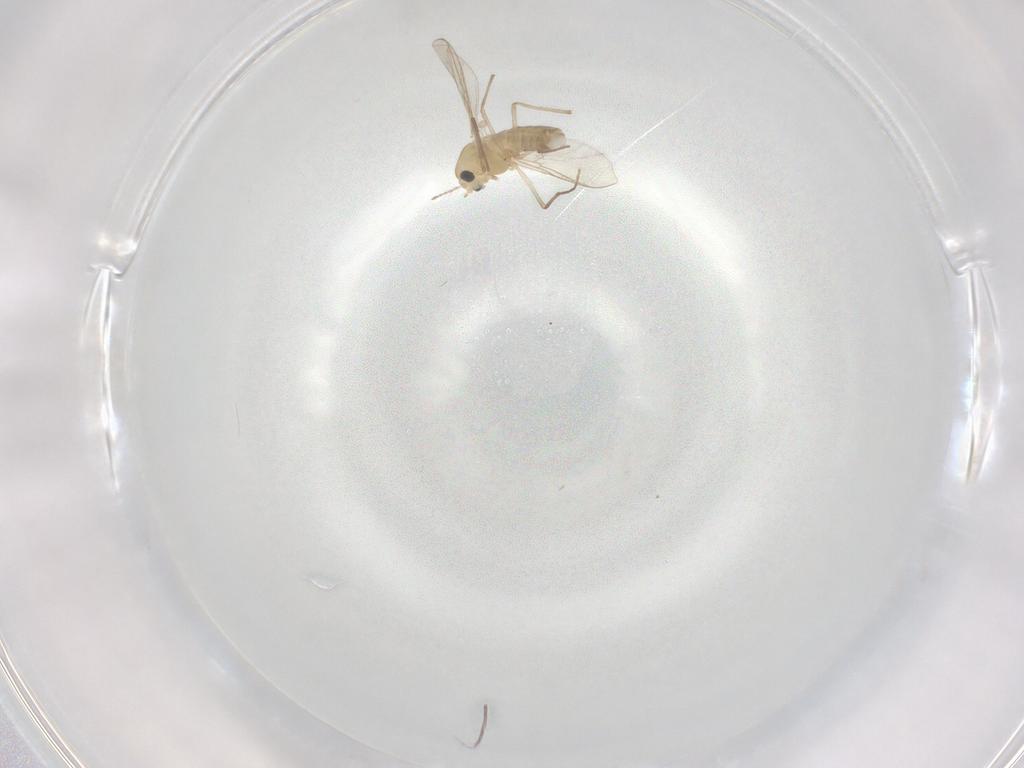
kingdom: Animalia
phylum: Arthropoda
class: Insecta
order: Diptera
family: Chironomidae
